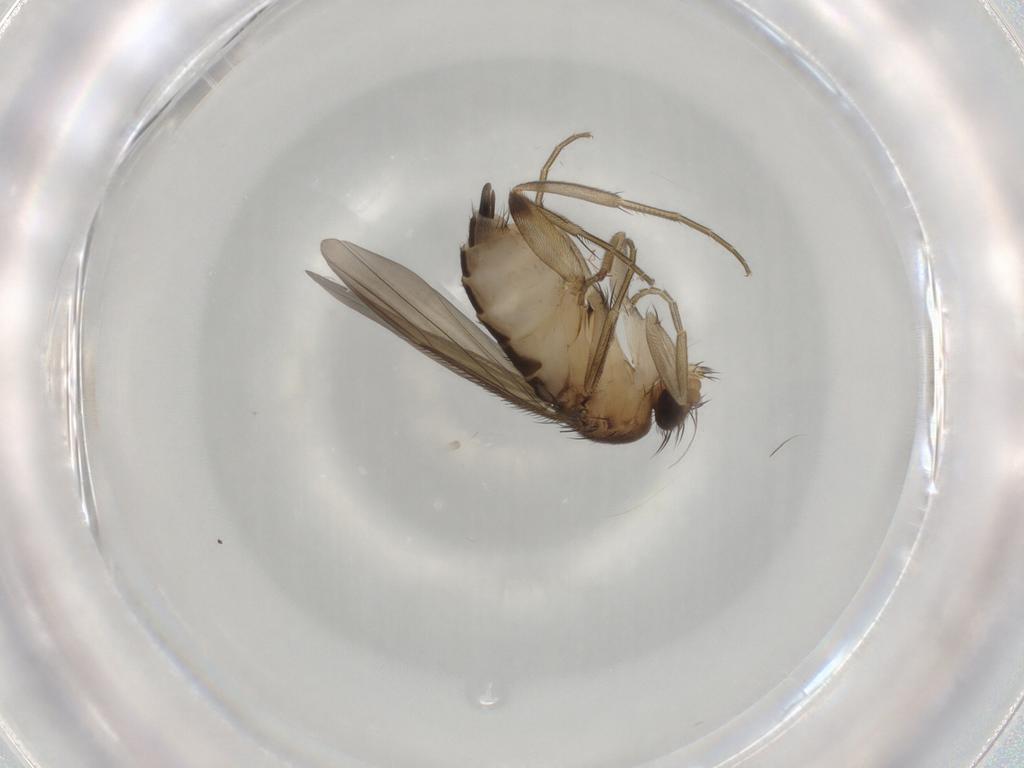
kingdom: Animalia
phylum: Arthropoda
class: Insecta
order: Diptera
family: Phoridae
